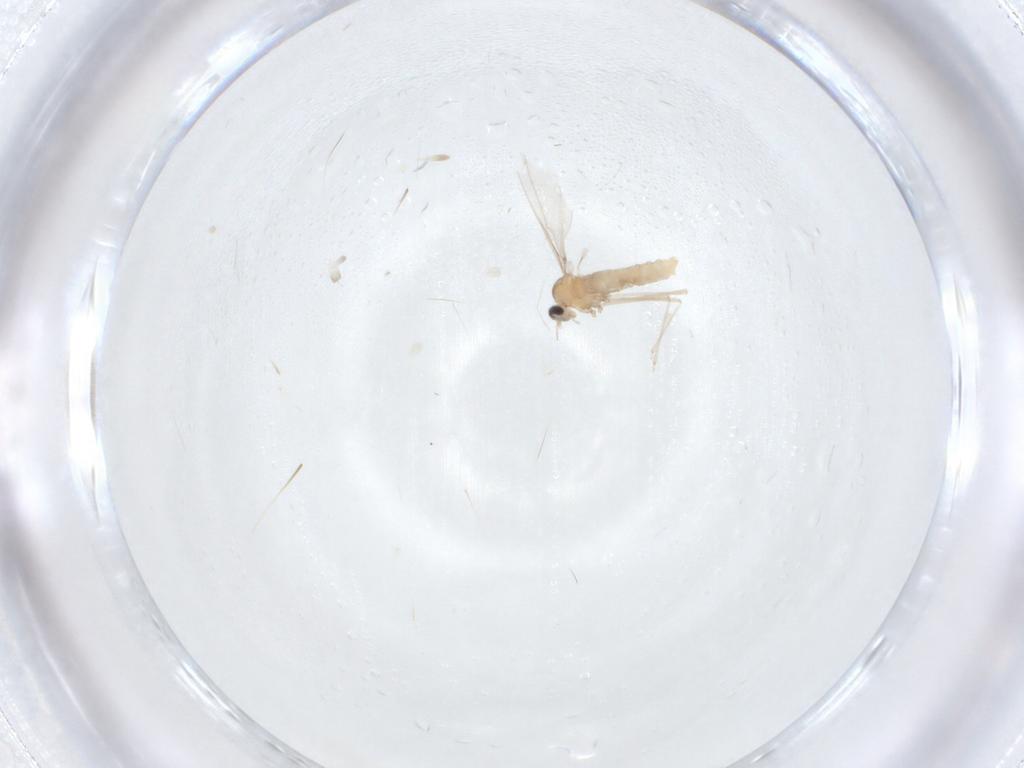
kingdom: Animalia
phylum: Arthropoda
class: Insecta
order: Diptera
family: Cecidomyiidae
